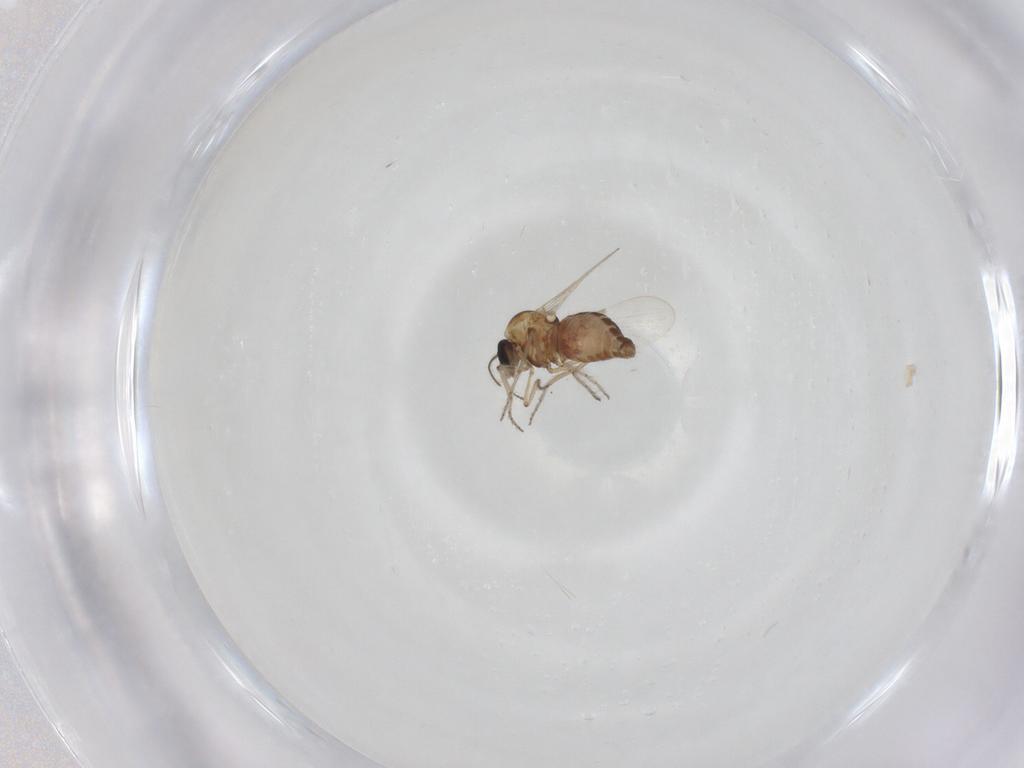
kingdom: Animalia
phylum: Arthropoda
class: Insecta
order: Diptera
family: Ceratopogonidae
